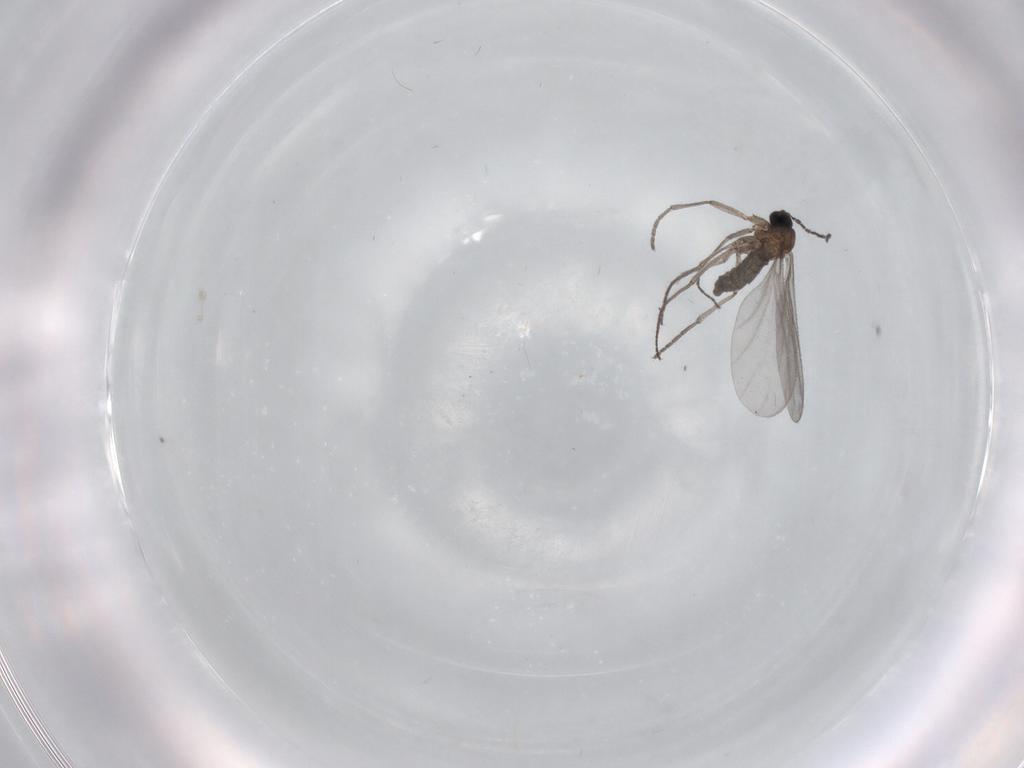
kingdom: Animalia
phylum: Arthropoda
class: Insecta
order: Diptera
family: Sciaridae
